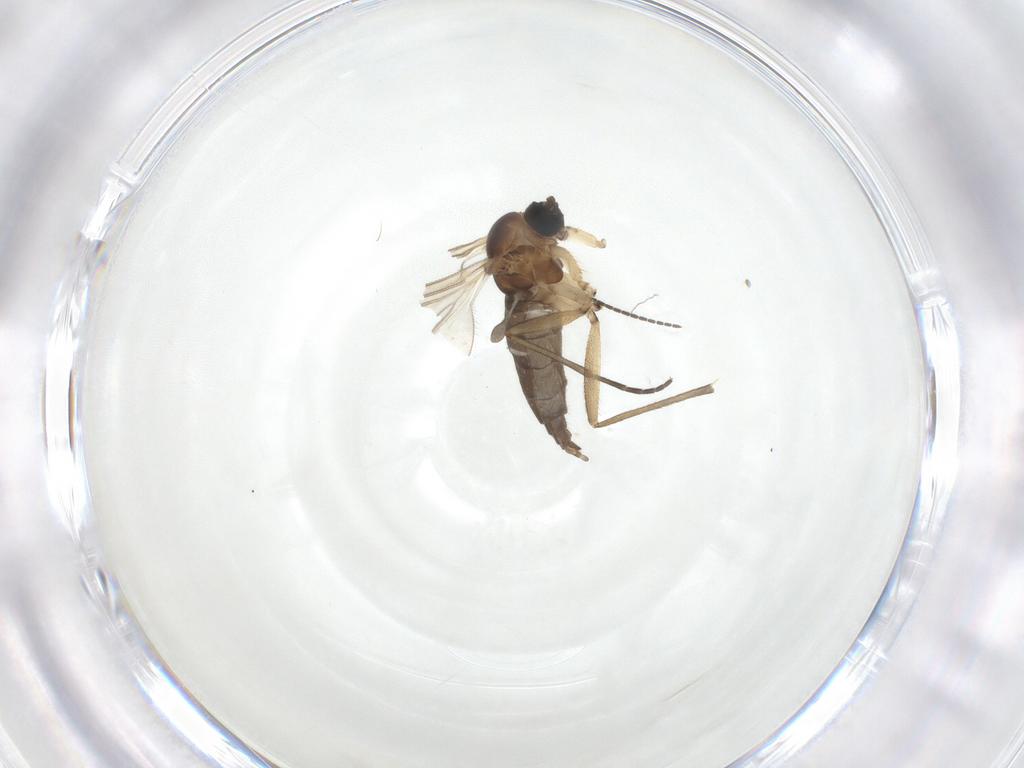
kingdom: Animalia
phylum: Arthropoda
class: Insecta
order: Diptera
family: Sciaridae
